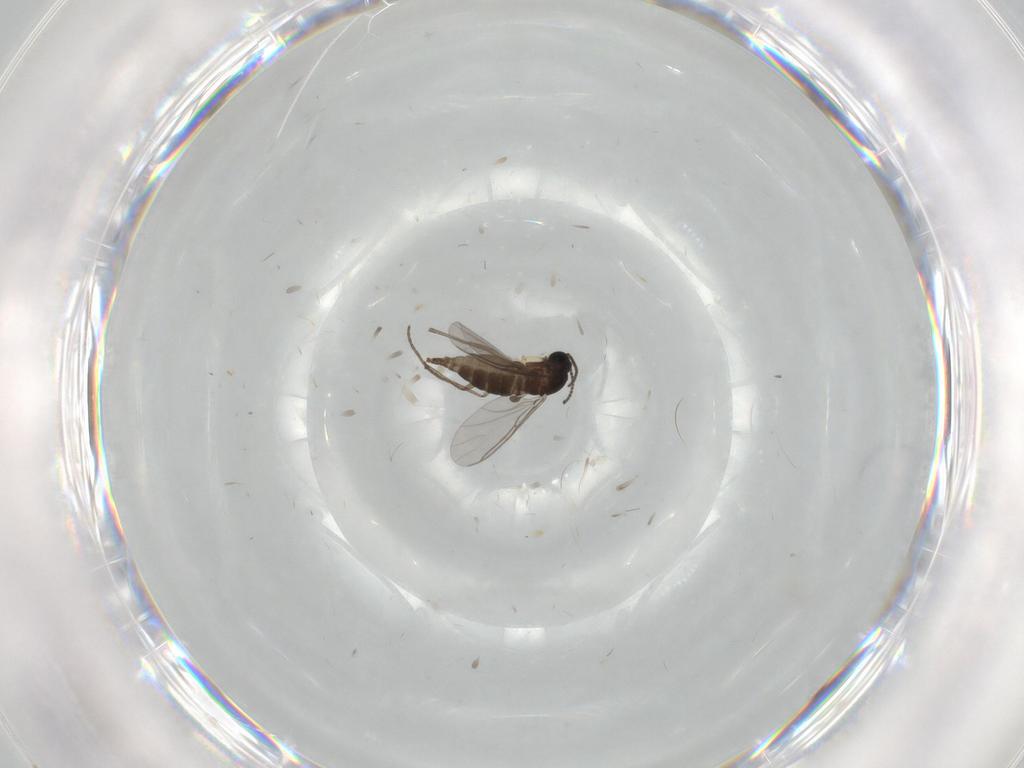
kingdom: Animalia
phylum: Arthropoda
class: Insecta
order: Diptera
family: Sciaridae
